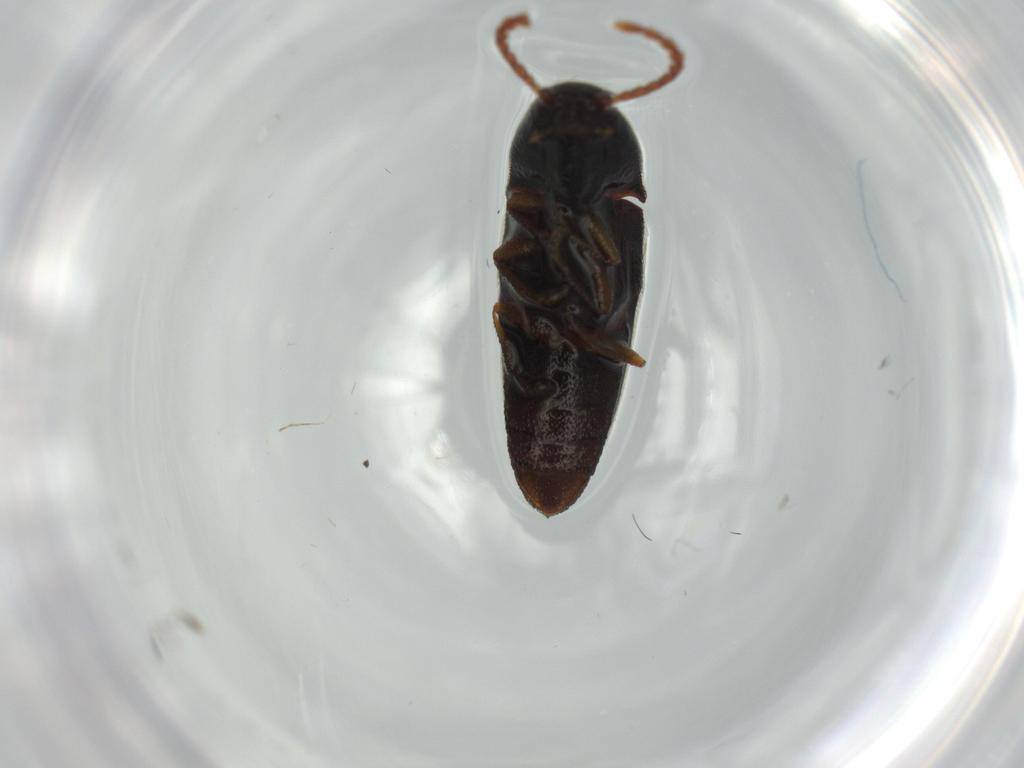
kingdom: Animalia
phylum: Arthropoda
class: Insecta
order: Coleoptera
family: Elateridae
